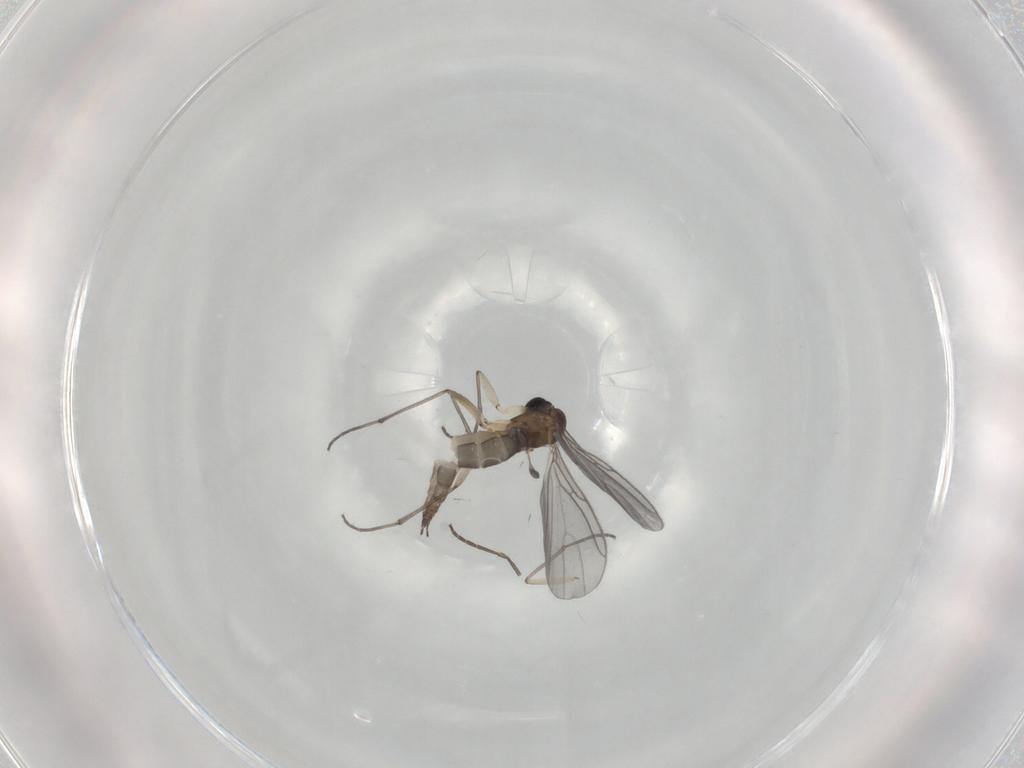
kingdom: Animalia
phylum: Arthropoda
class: Insecta
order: Diptera
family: Sciaridae
